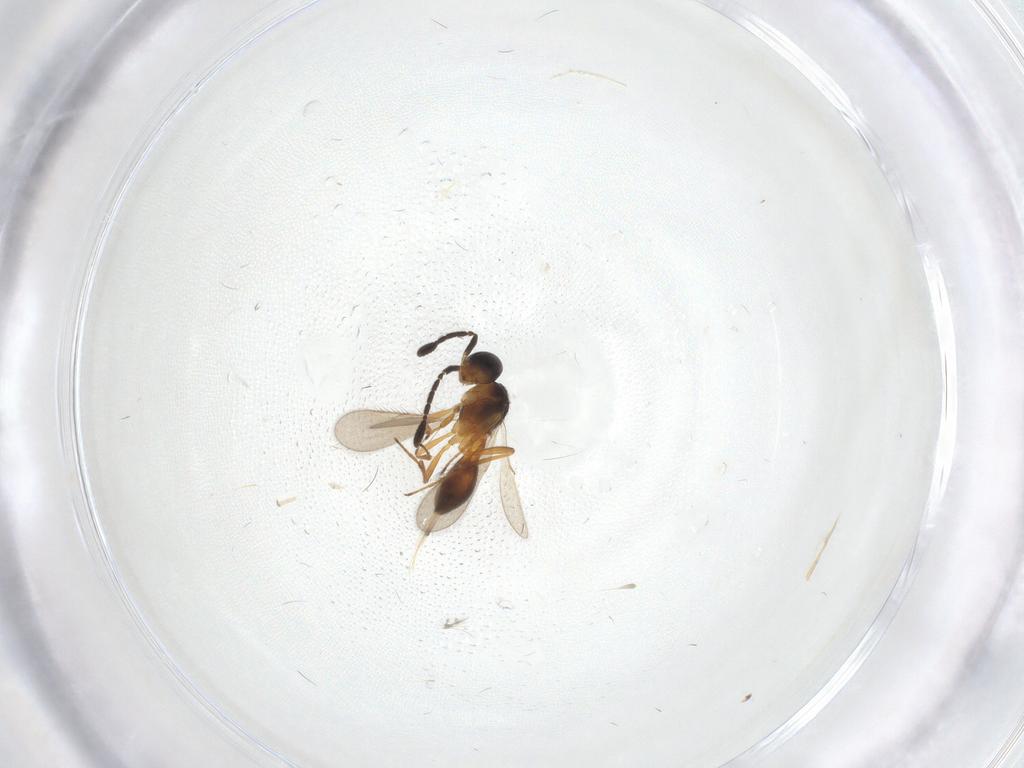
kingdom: Animalia
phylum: Arthropoda
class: Insecta
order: Hymenoptera
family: Scelionidae
